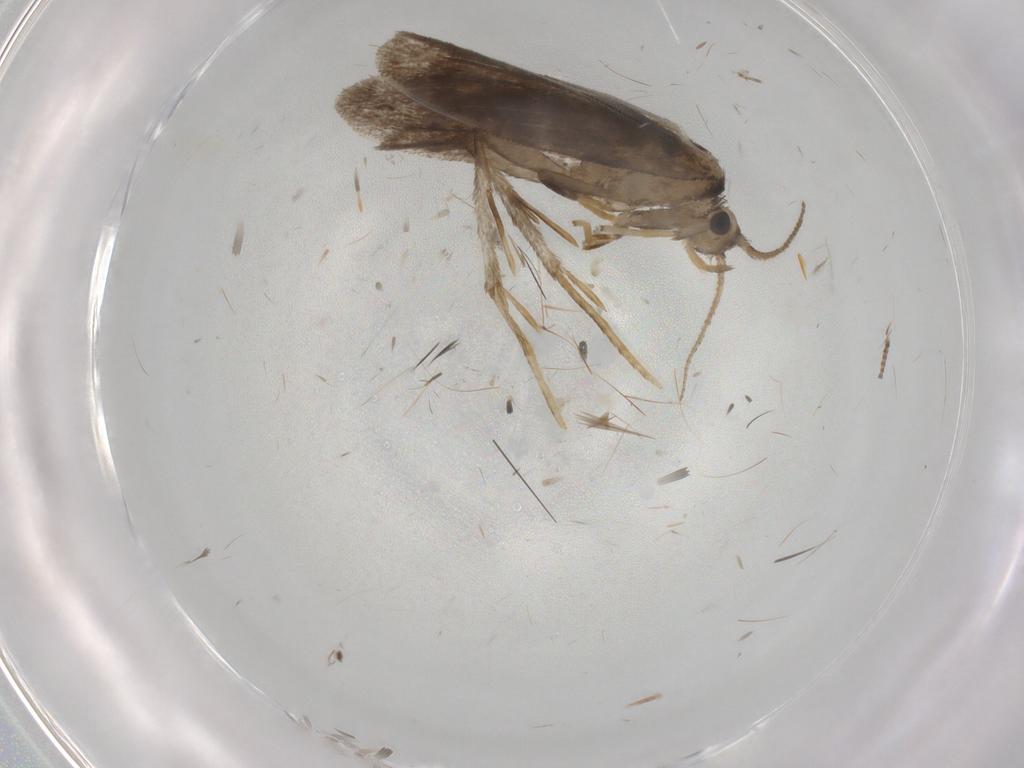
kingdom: Animalia
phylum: Arthropoda
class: Insecta
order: Lepidoptera
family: Psychidae
